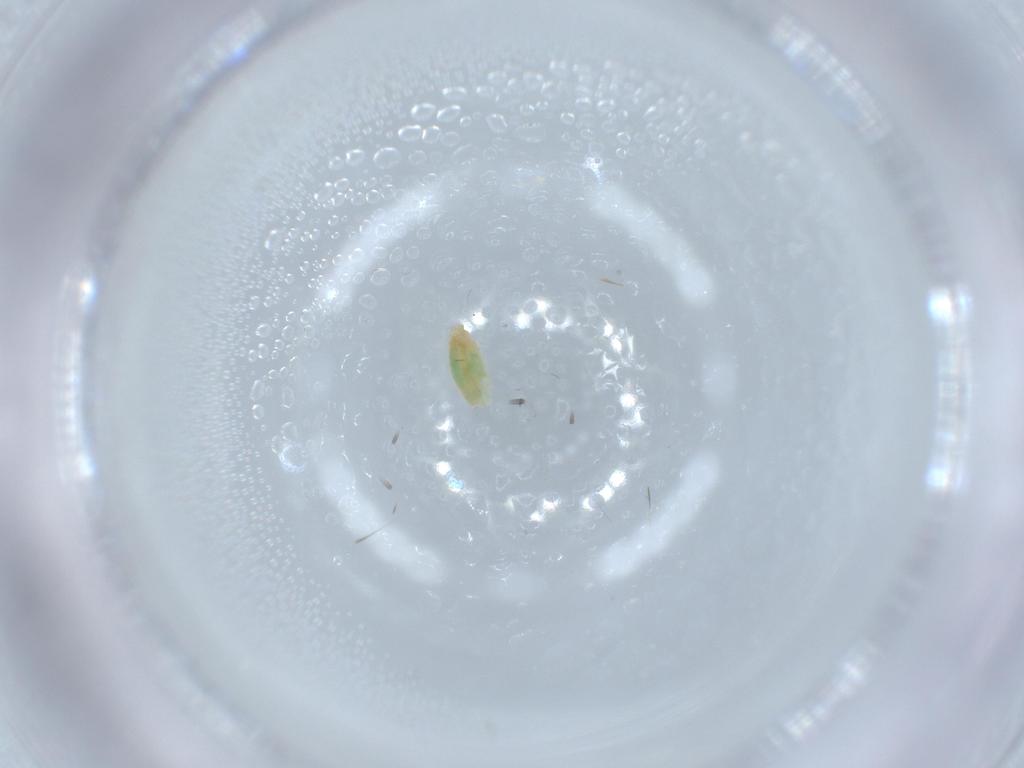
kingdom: Animalia
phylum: Arthropoda
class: Insecta
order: Diptera
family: Chironomidae
